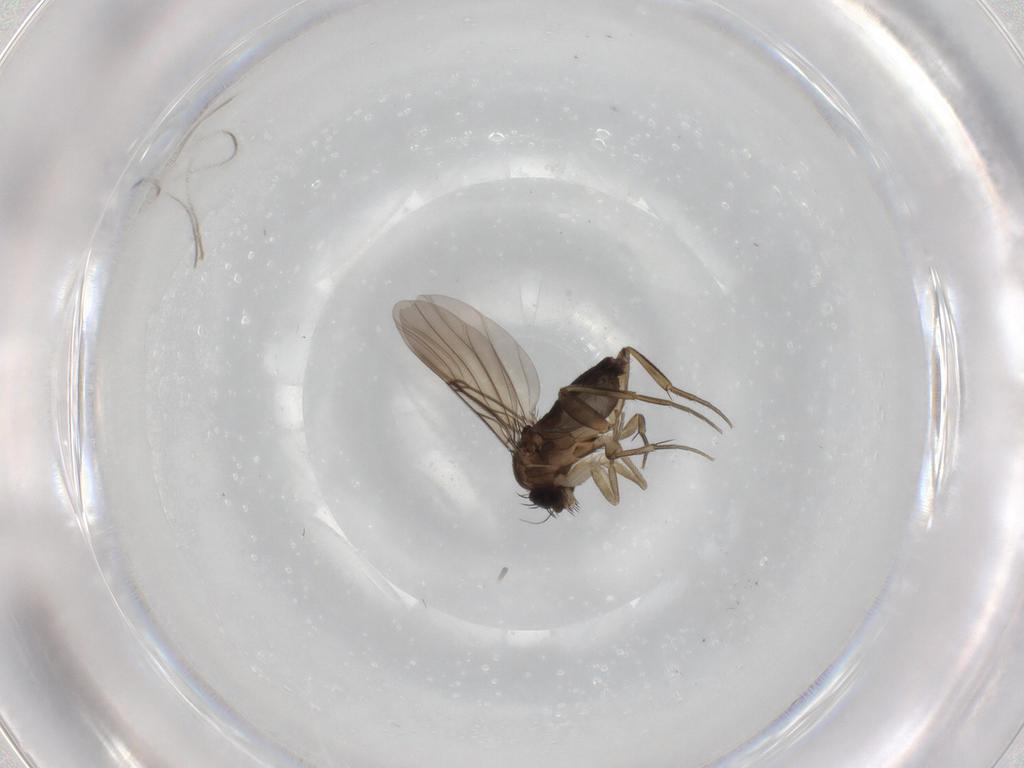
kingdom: Animalia
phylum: Arthropoda
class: Insecta
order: Diptera
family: Phoridae
